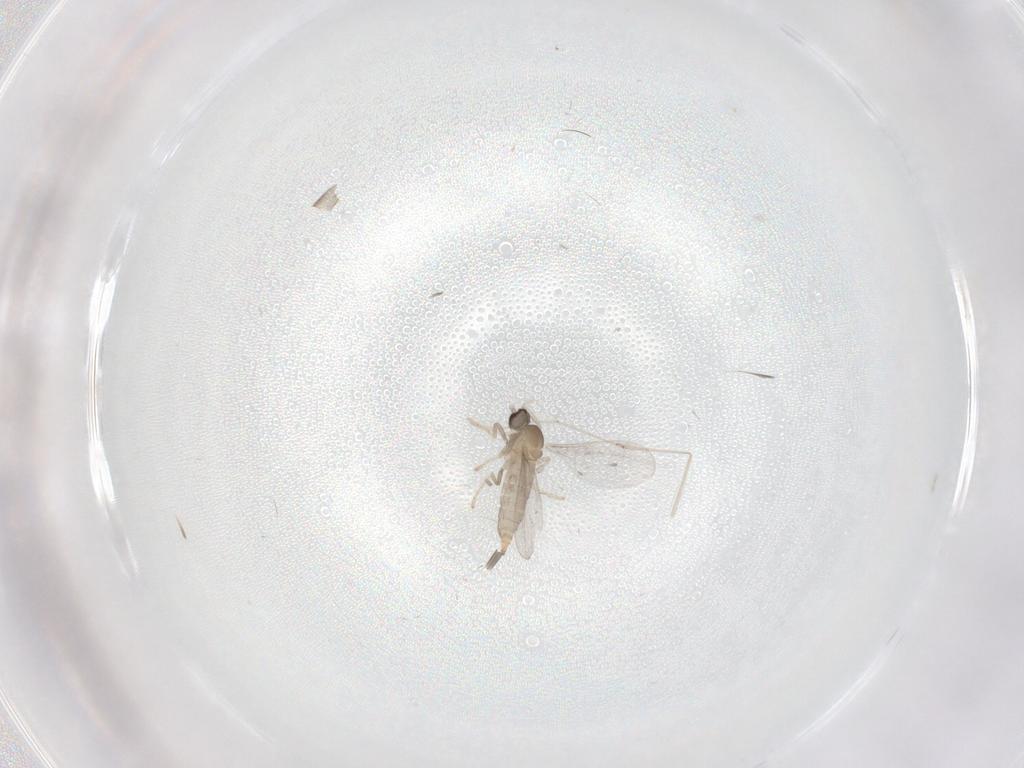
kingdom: Animalia
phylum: Arthropoda
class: Insecta
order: Diptera
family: Cecidomyiidae
